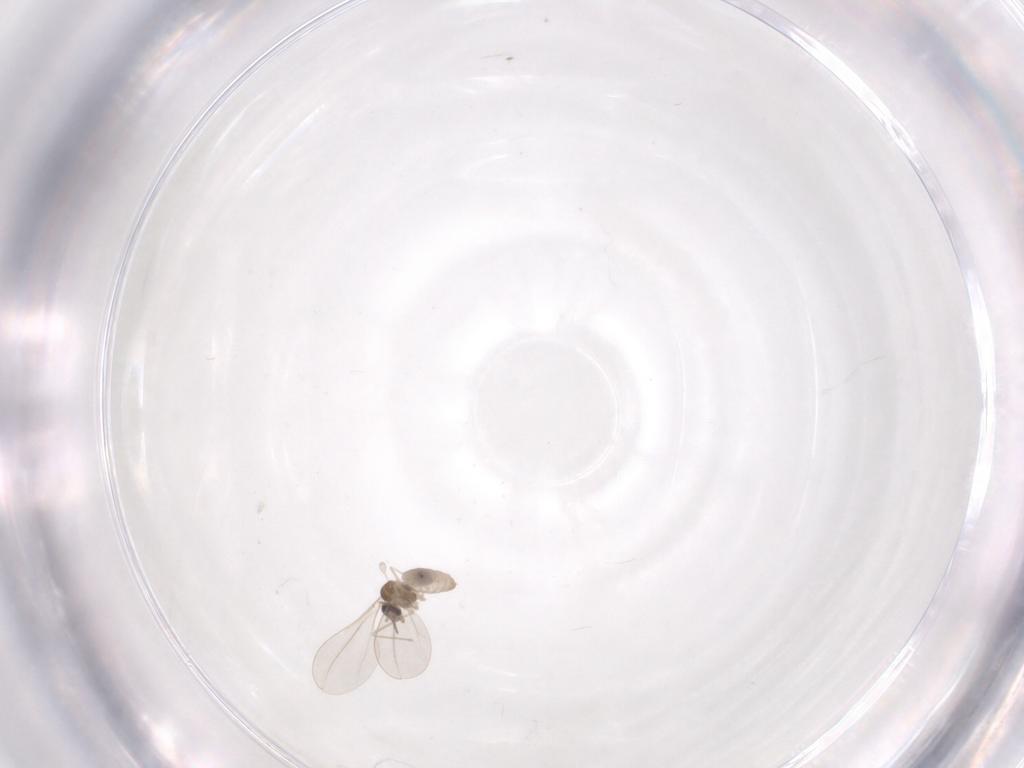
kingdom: Animalia
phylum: Arthropoda
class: Insecta
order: Diptera
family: Cecidomyiidae
